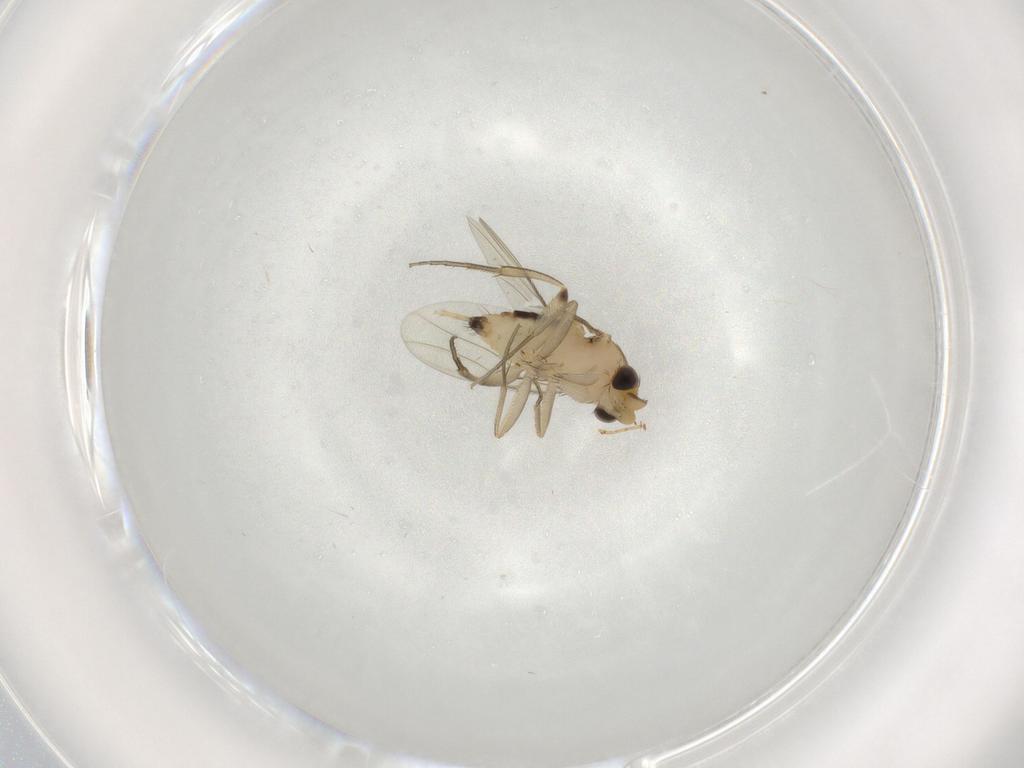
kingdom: Animalia
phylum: Arthropoda
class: Insecta
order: Diptera
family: Phoridae
